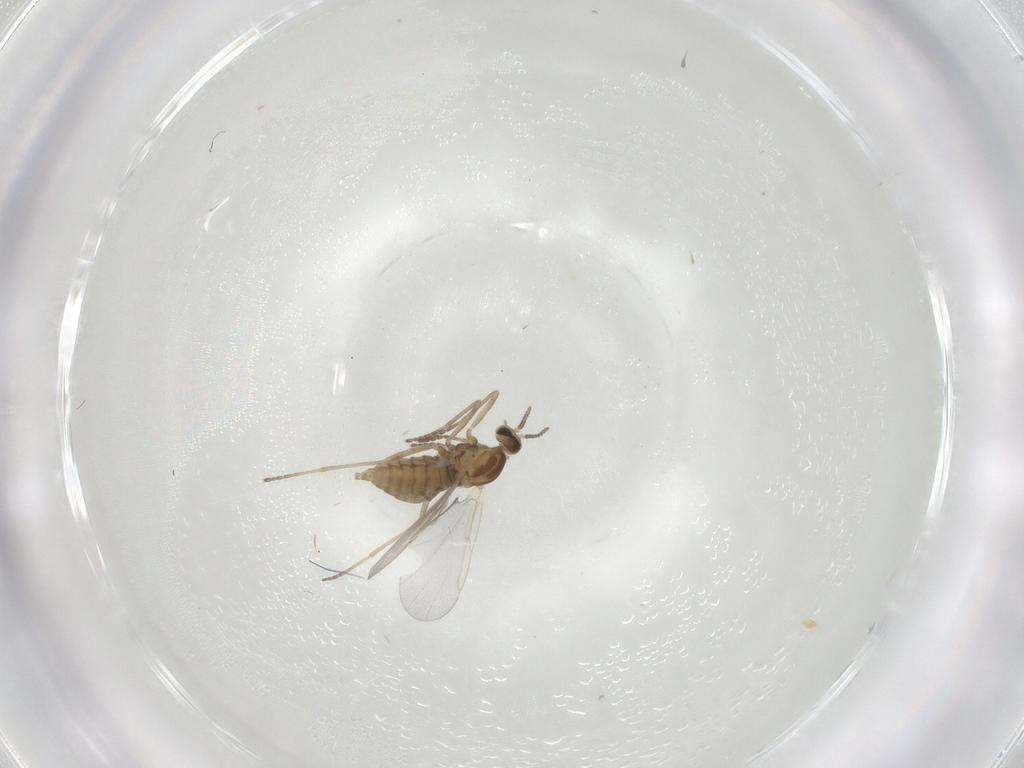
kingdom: Animalia
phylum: Arthropoda
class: Insecta
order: Diptera
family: Cecidomyiidae
